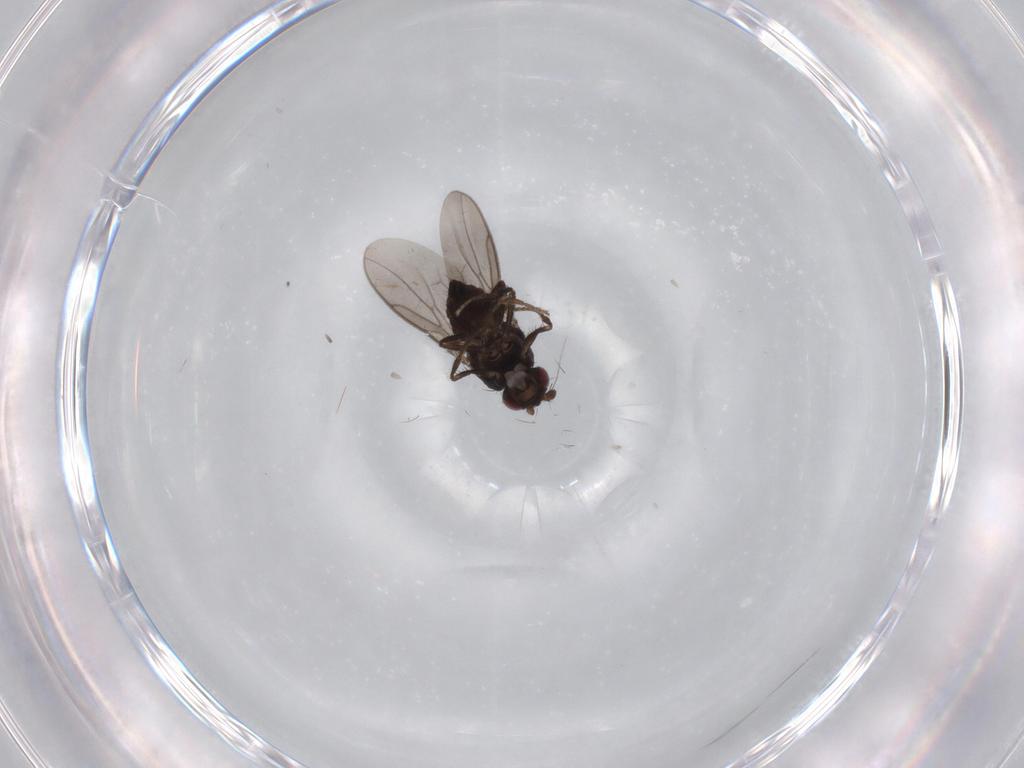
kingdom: Animalia
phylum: Arthropoda
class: Insecta
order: Diptera
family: Sphaeroceridae
